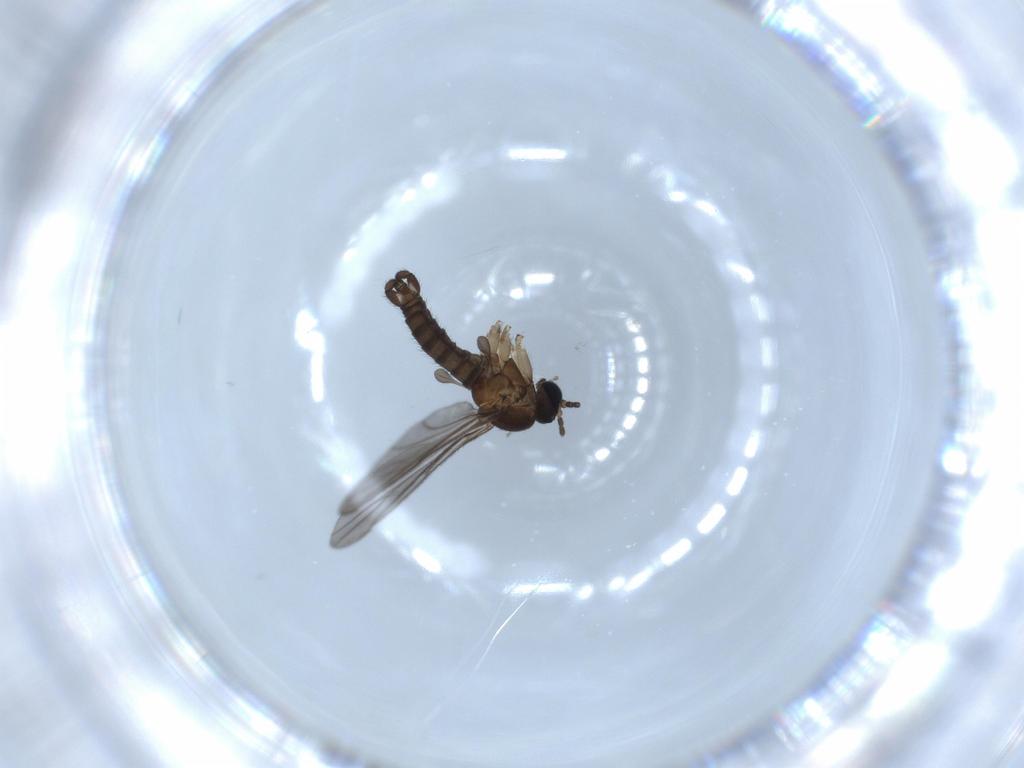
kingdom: Animalia
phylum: Arthropoda
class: Insecta
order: Diptera
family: Sciaridae
